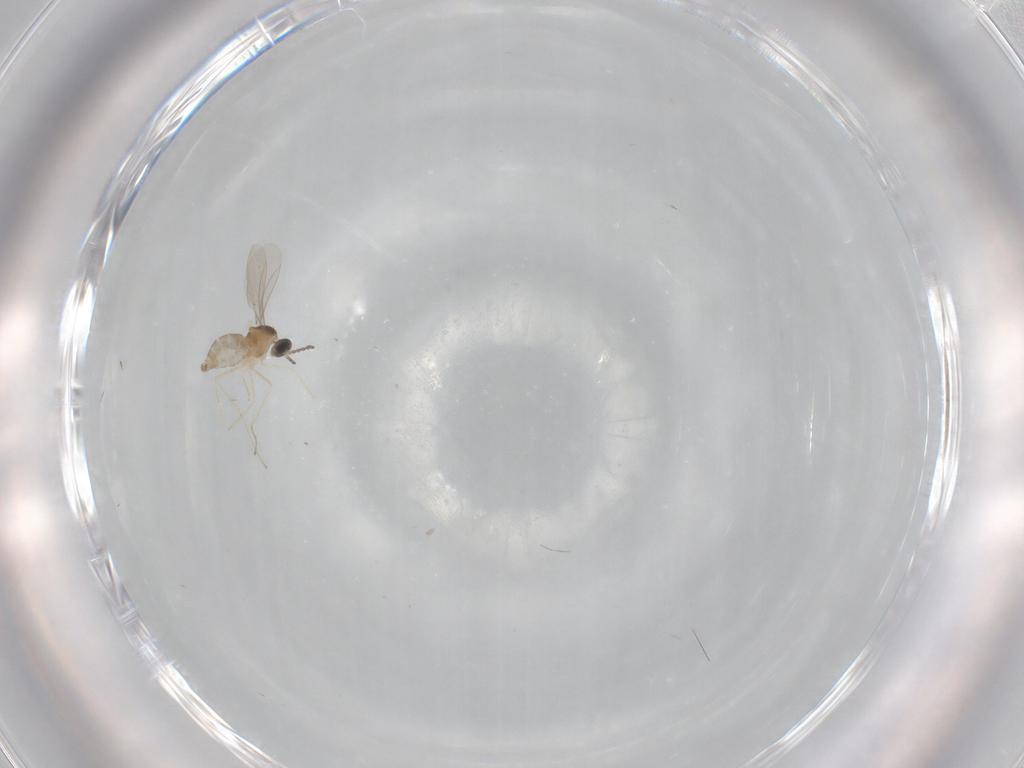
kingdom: Animalia
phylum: Arthropoda
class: Insecta
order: Diptera
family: Cecidomyiidae
